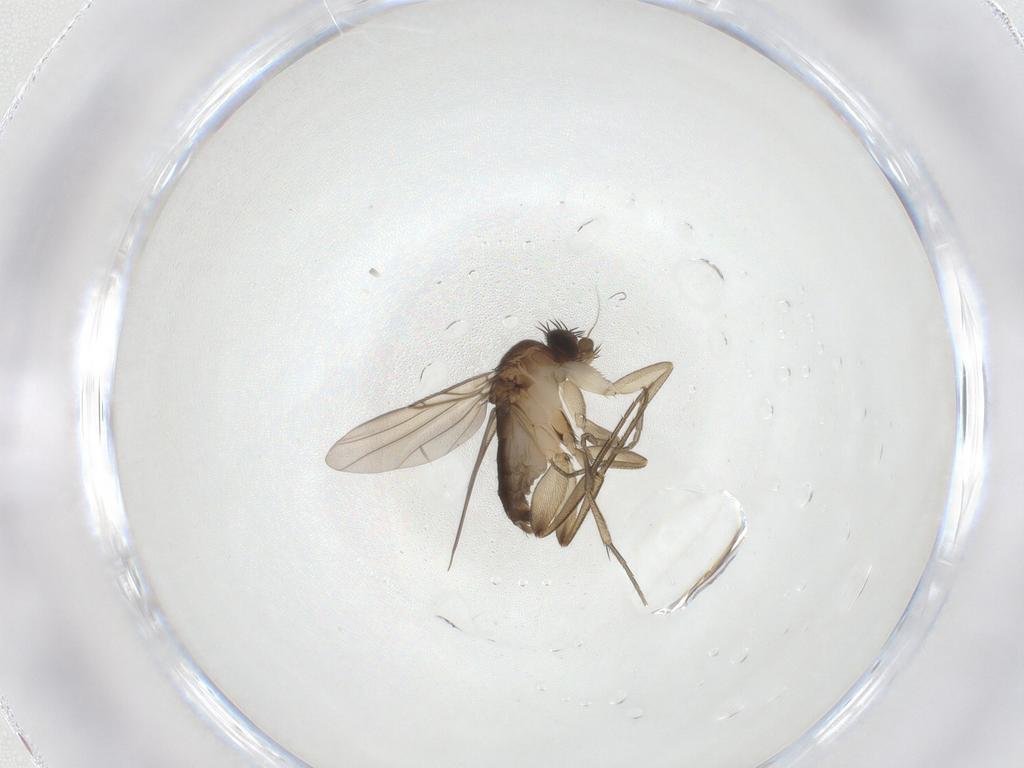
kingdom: Animalia
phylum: Arthropoda
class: Insecta
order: Diptera
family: Phoridae
